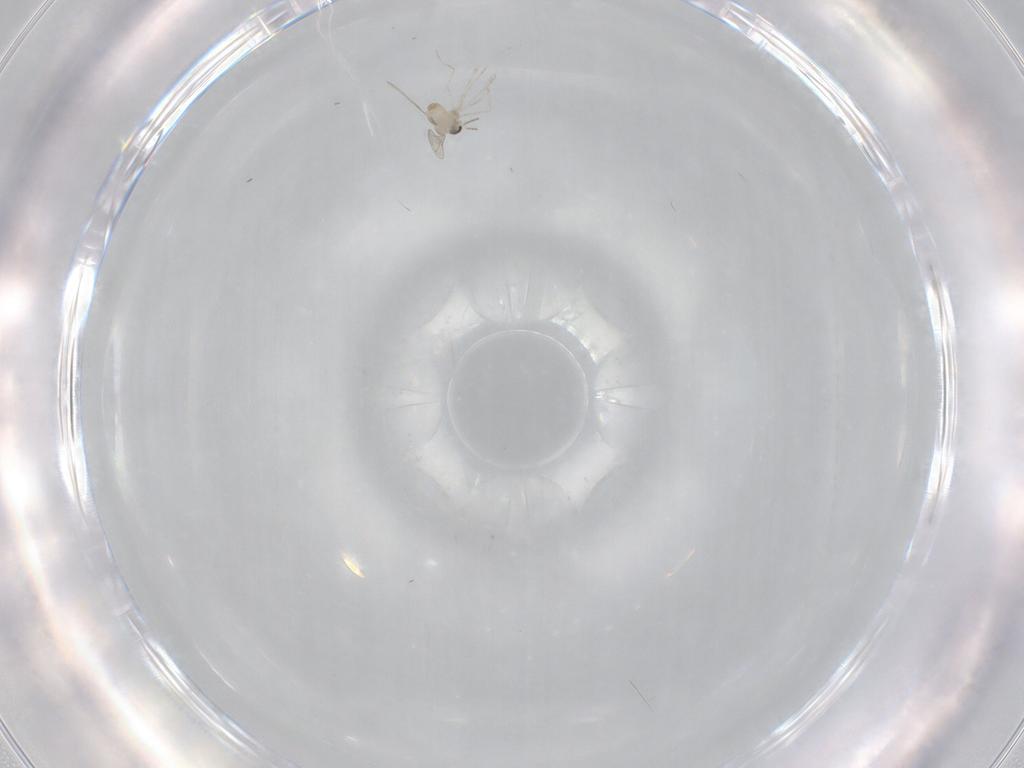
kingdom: Animalia
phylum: Arthropoda
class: Insecta
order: Diptera
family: Cecidomyiidae
